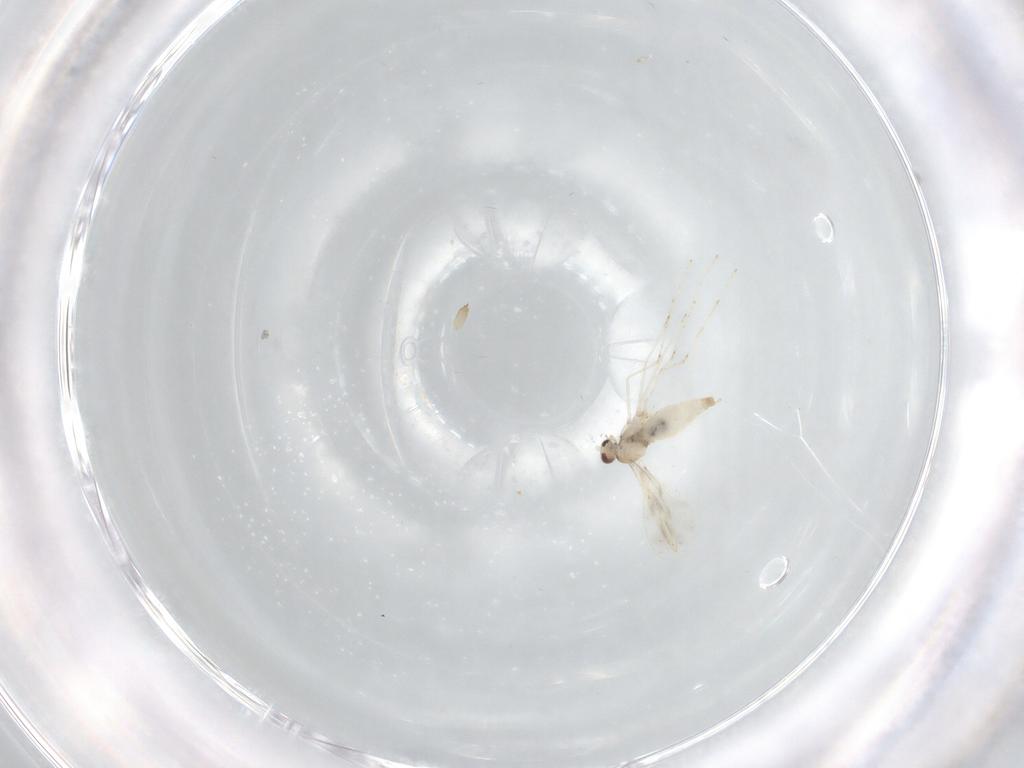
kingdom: Animalia
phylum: Arthropoda
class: Insecta
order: Diptera
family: Cecidomyiidae
